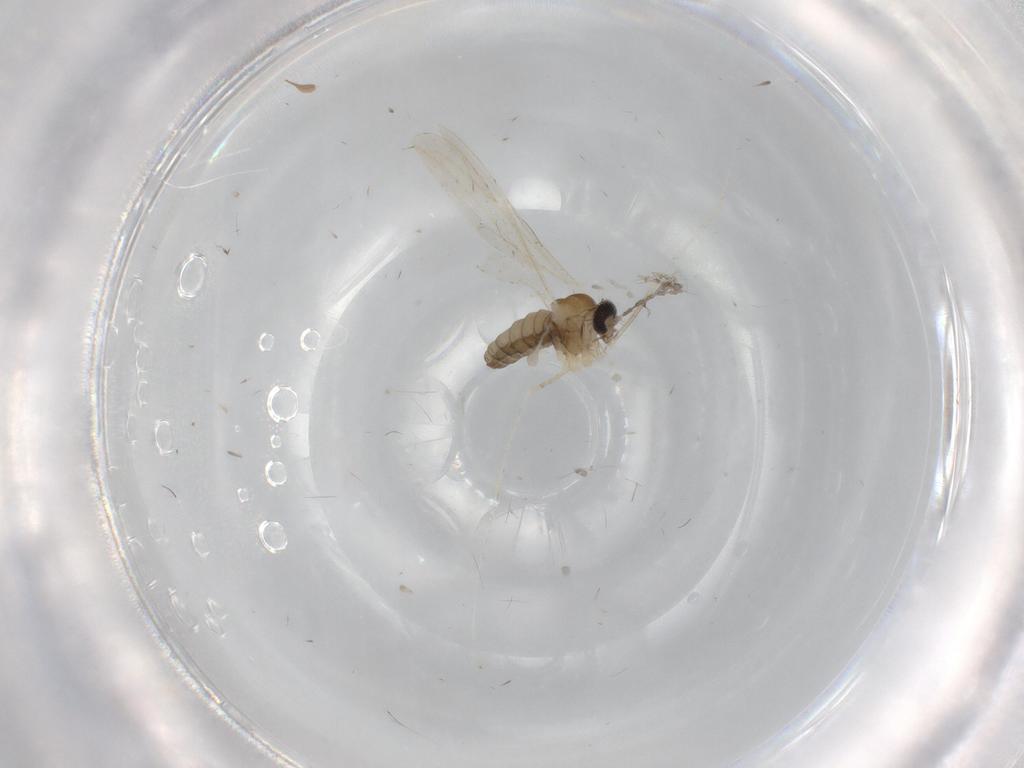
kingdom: Animalia
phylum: Arthropoda
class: Insecta
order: Diptera
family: Cecidomyiidae
